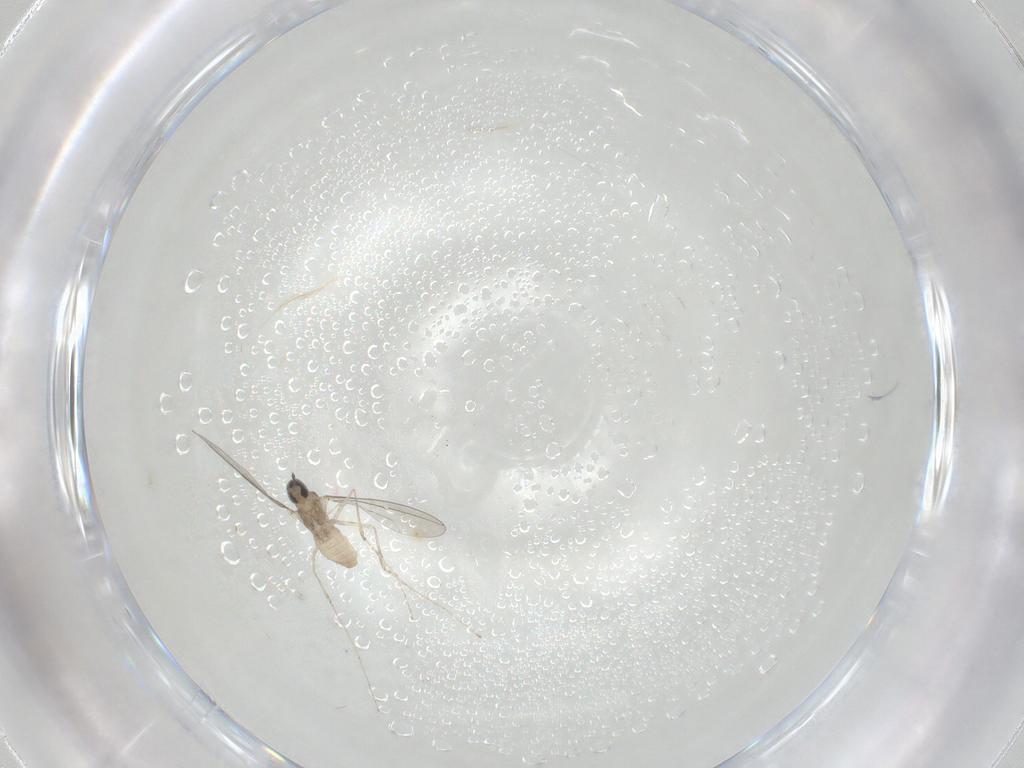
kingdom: Animalia
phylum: Arthropoda
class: Insecta
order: Diptera
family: Cecidomyiidae
